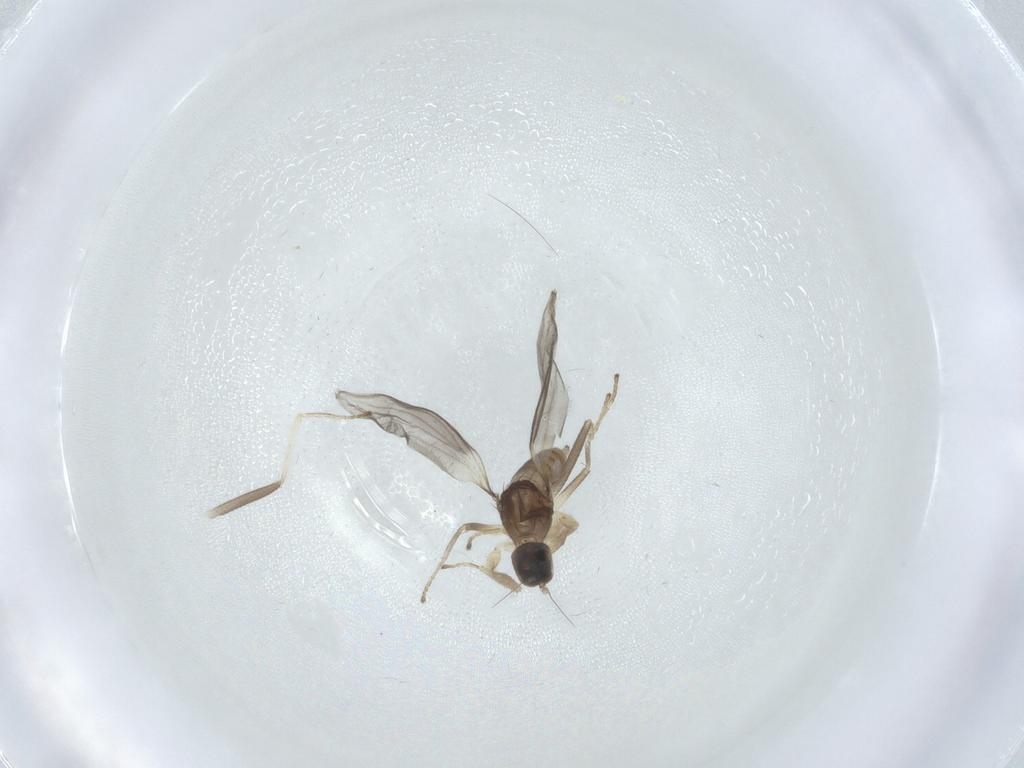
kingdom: Animalia
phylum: Arthropoda
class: Insecta
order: Diptera
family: Hybotidae
